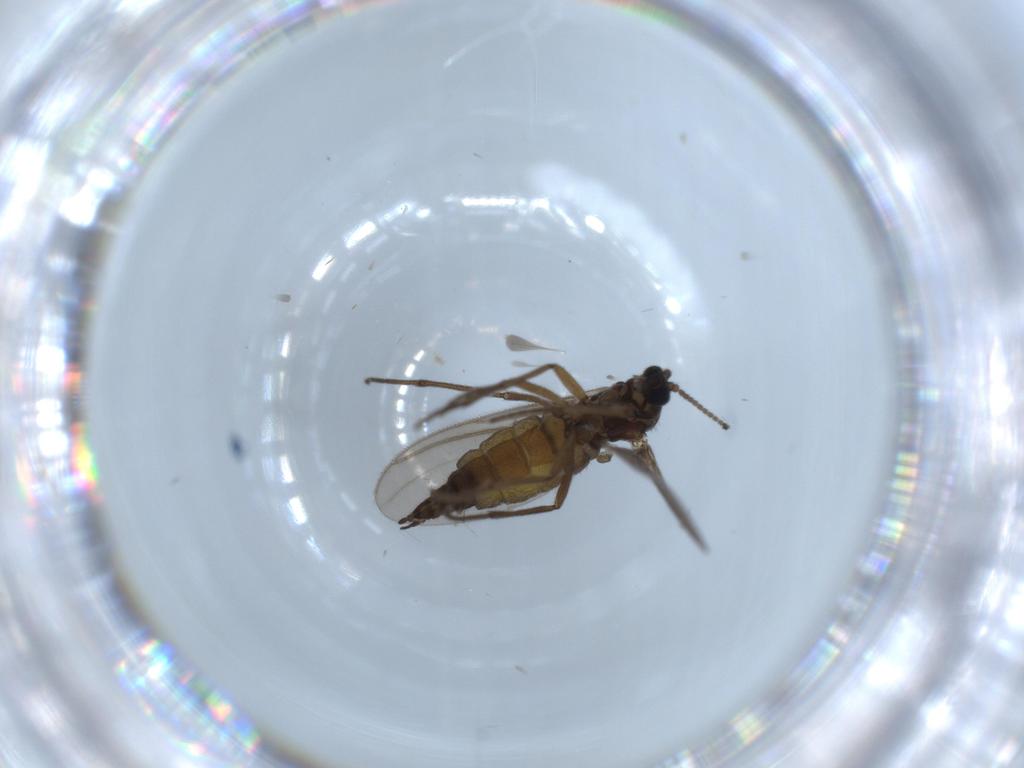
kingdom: Animalia
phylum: Arthropoda
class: Insecta
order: Diptera
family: Sciaridae
